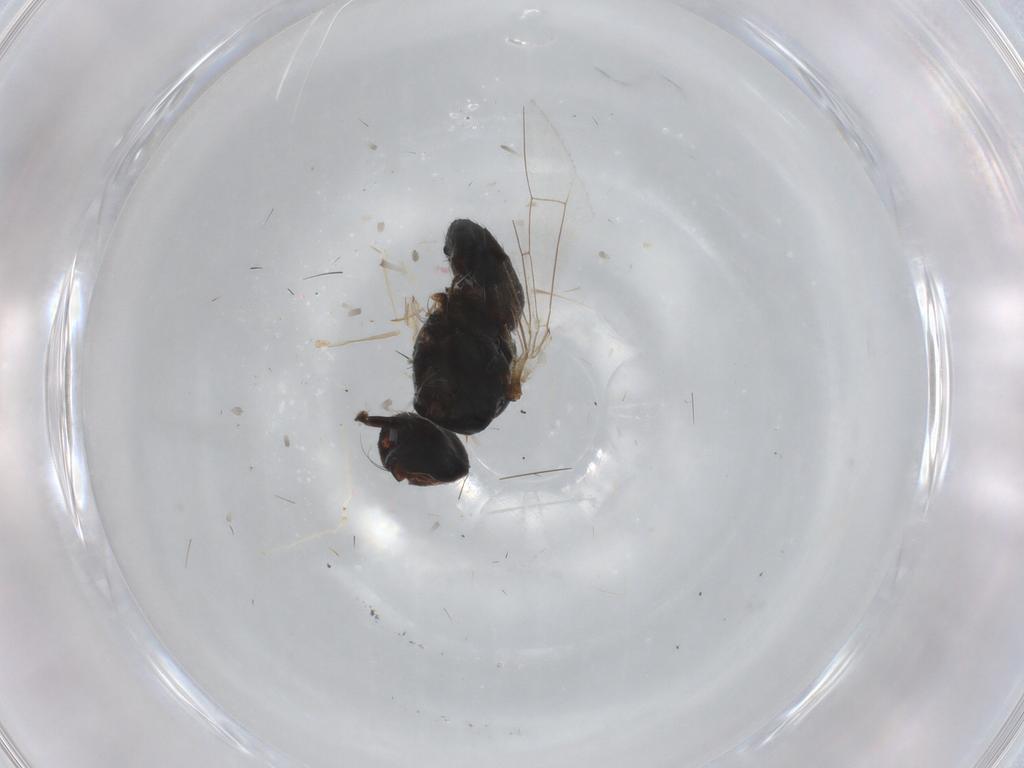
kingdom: Animalia
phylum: Arthropoda
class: Insecta
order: Diptera
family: Muscidae
